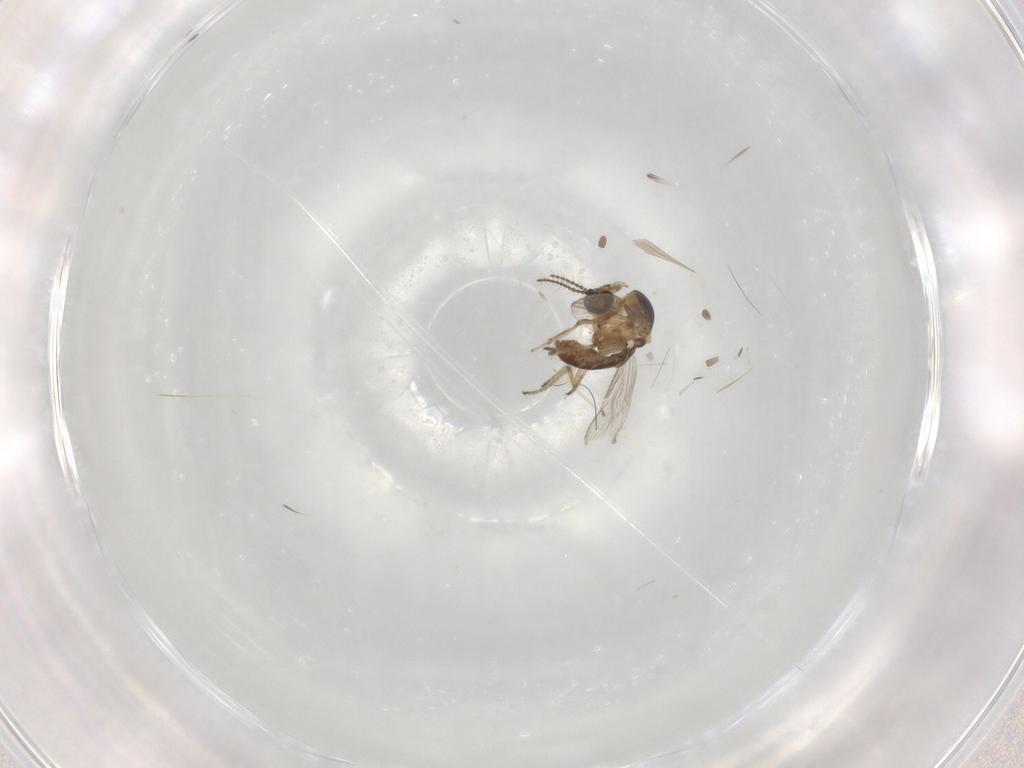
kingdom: Animalia
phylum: Arthropoda
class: Insecta
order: Diptera
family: Ceratopogonidae
